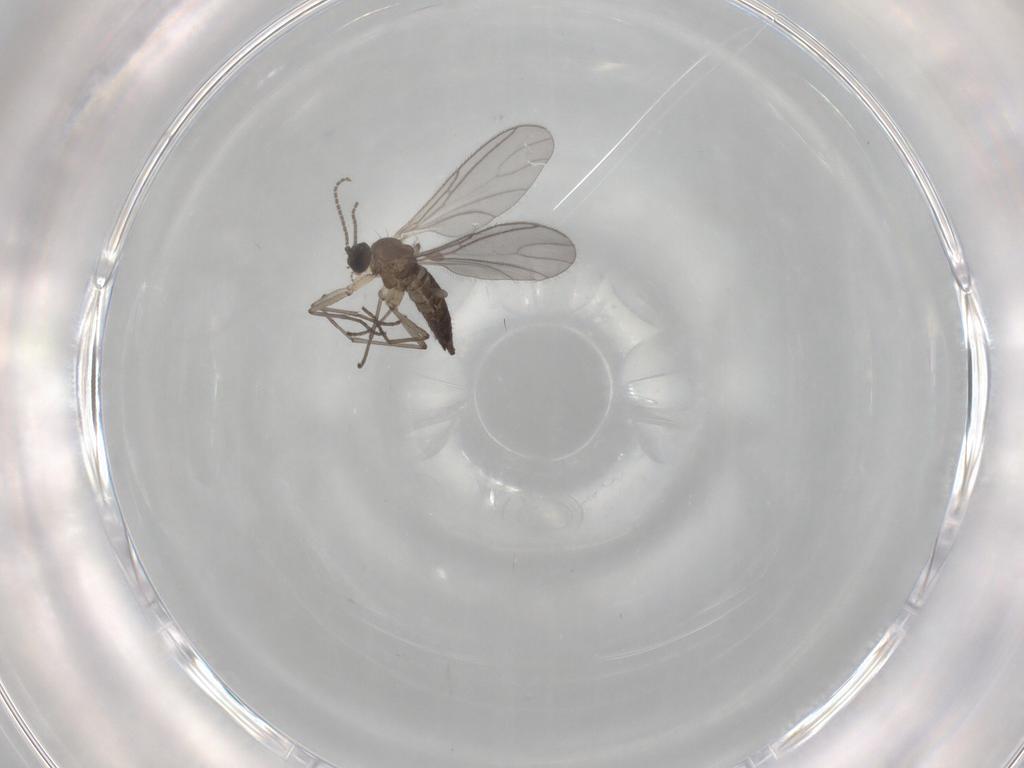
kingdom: Animalia
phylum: Arthropoda
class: Insecta
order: Diptera
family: Sciaridae
